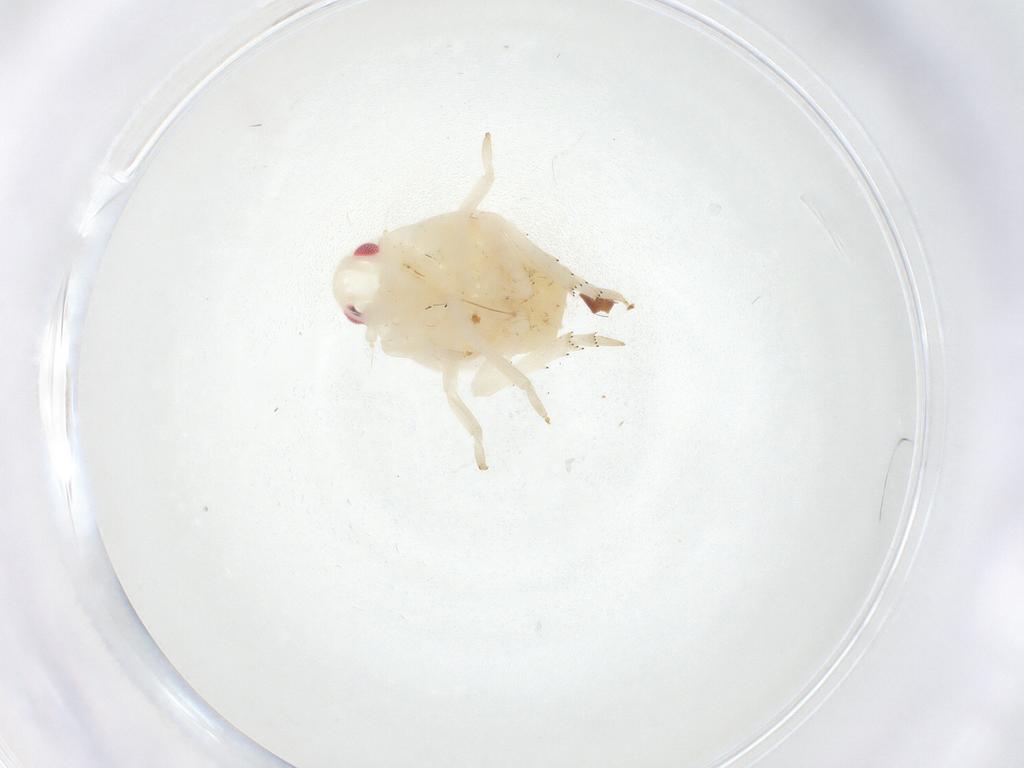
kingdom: Animalia
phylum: Arthropoda
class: Insecta
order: Hemiptera
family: Flatidae
